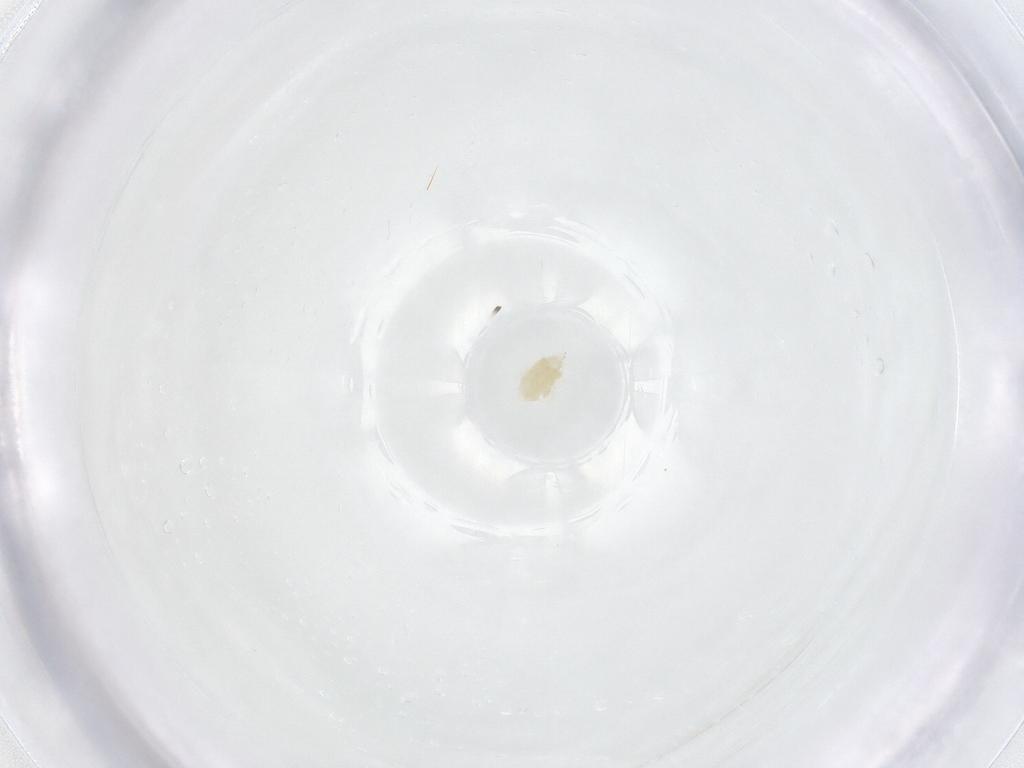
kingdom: Animalia
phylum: Arthropoda
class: Arachnida
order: Trombidiformes
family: Eupodidae
